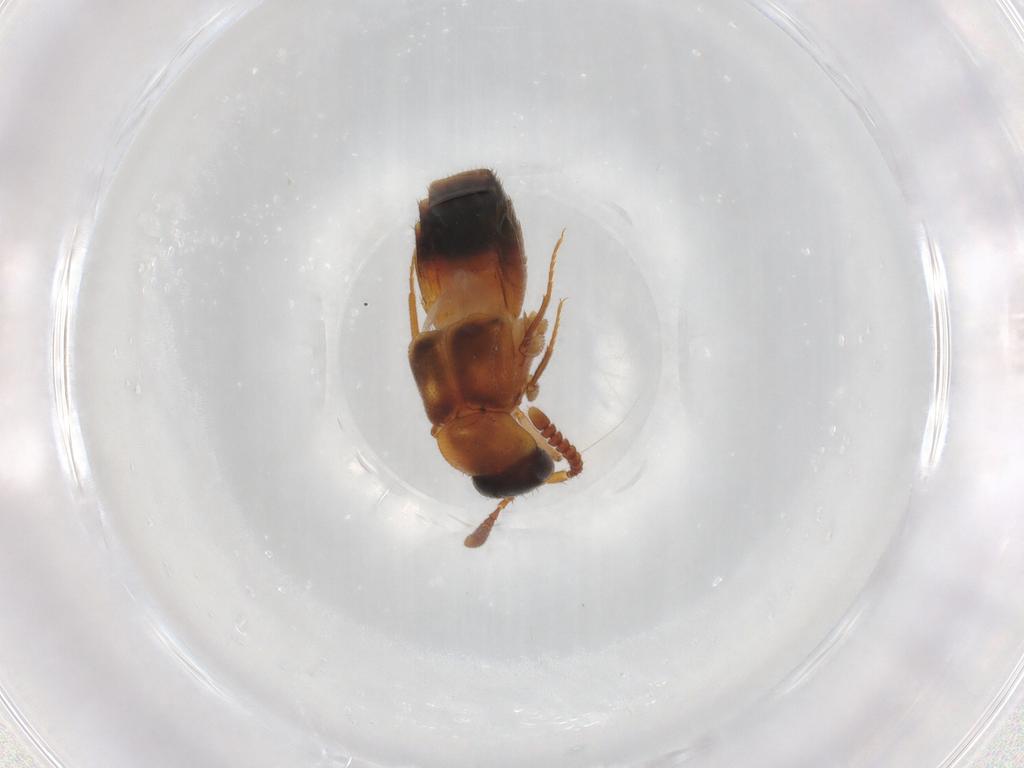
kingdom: Animalia
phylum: Arthropoda
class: Insecta
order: Coleoptera
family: Staphylinidae
